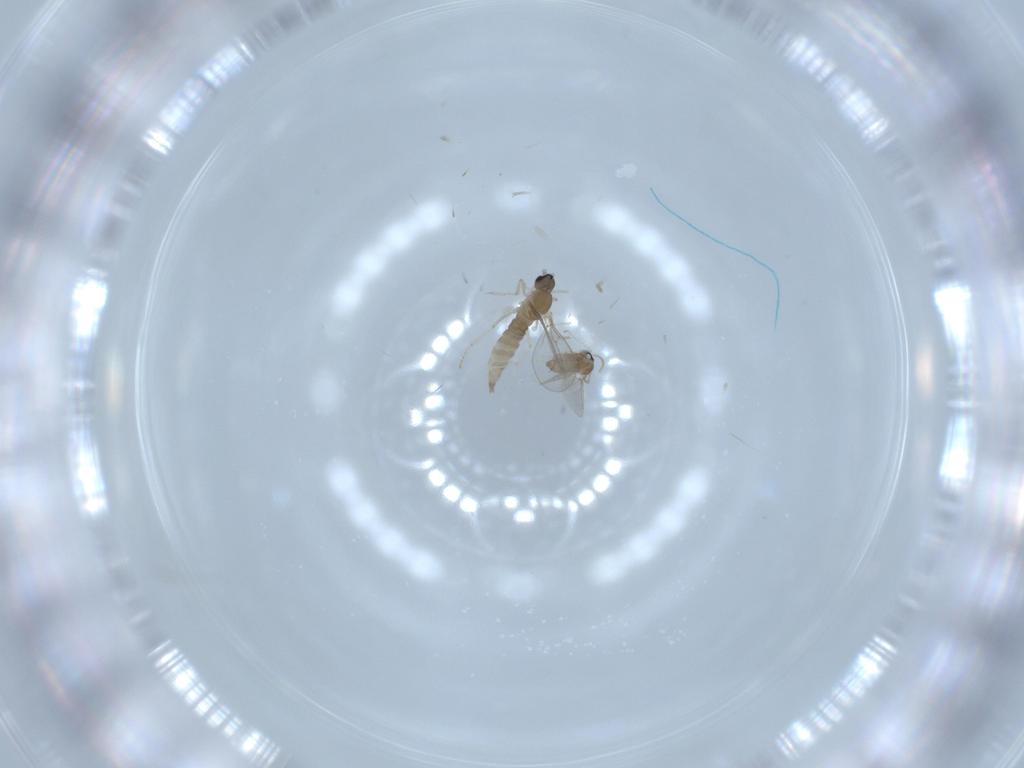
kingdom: Animalia
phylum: Arthropoda
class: Insecta
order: Diptera
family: Cecidomyiidae
